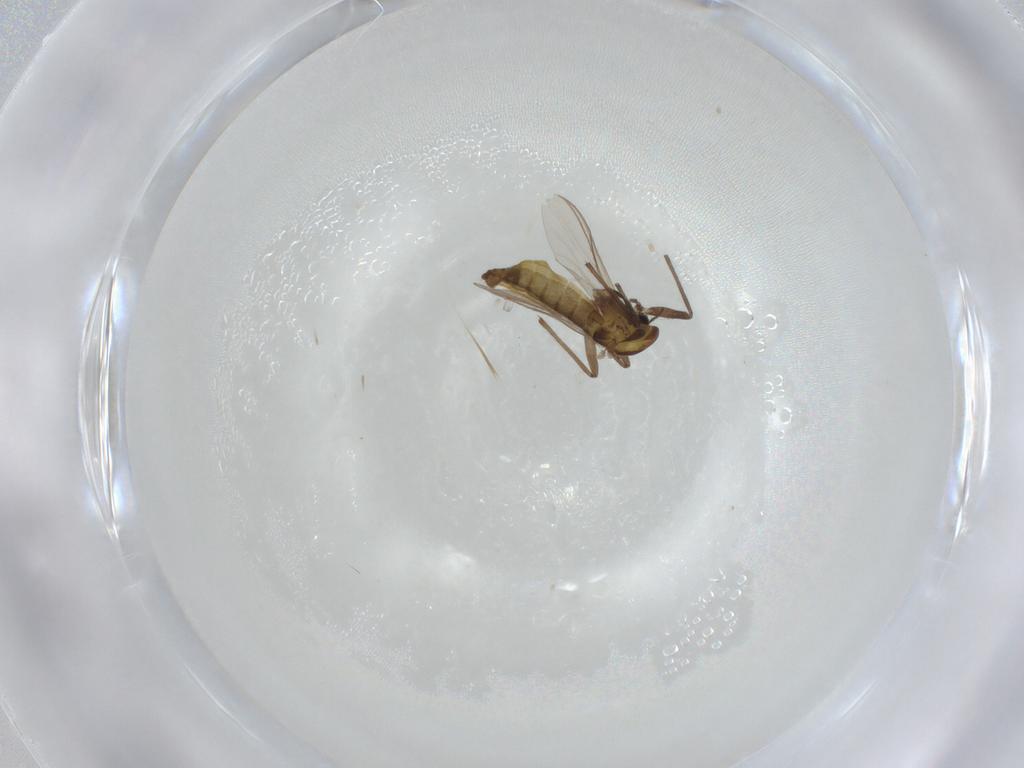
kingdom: Animalia
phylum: Arthropoda
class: Insecta
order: Diptera
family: Chironomidae
